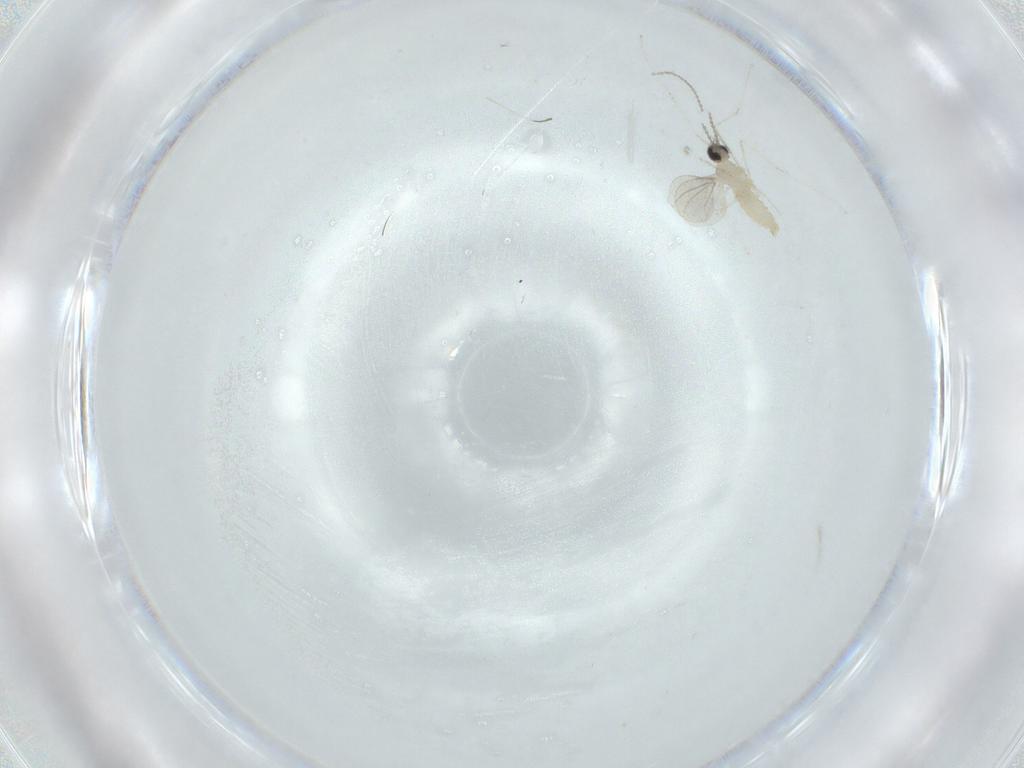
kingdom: Animalia
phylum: Arthropoda
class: Insecta
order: Diptera
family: Cecidomyiidae
